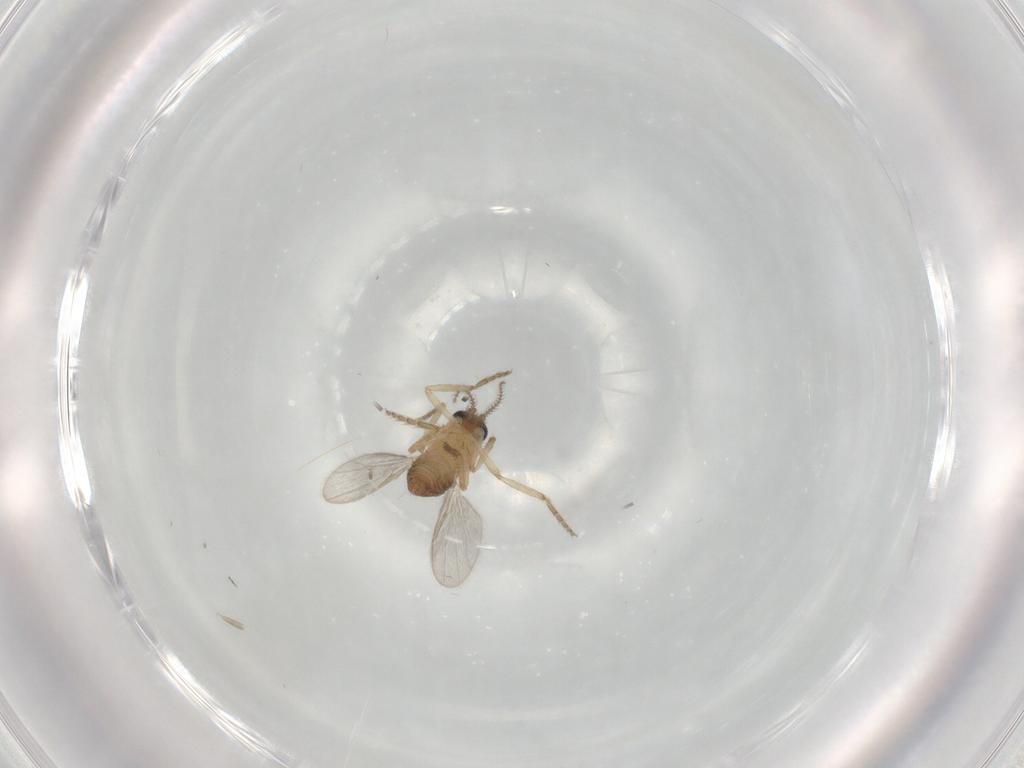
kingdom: Animalia
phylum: Arthropoda
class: Insecta
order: Diptera
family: Ceratopogonidae
